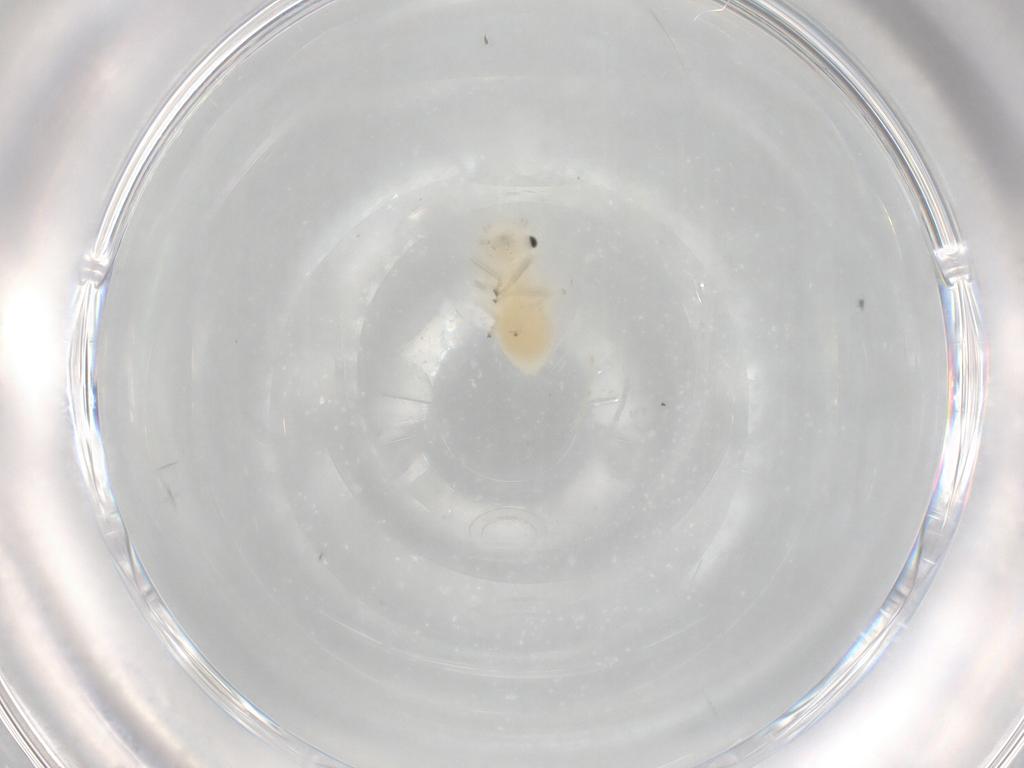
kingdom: Animalia
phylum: Arthropoda
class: Insecta
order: Psocodea
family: Caeciliusidae
